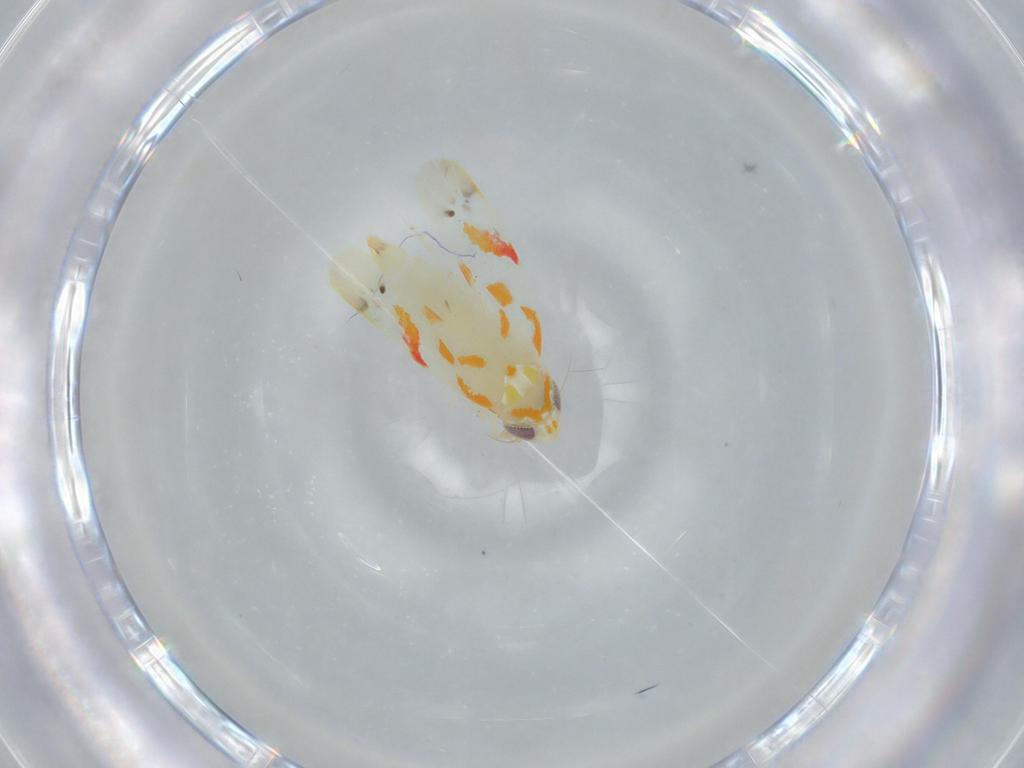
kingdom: Animalia
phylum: Arthropoda
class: Insecta
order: Hemiptera
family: Cicadellidae
